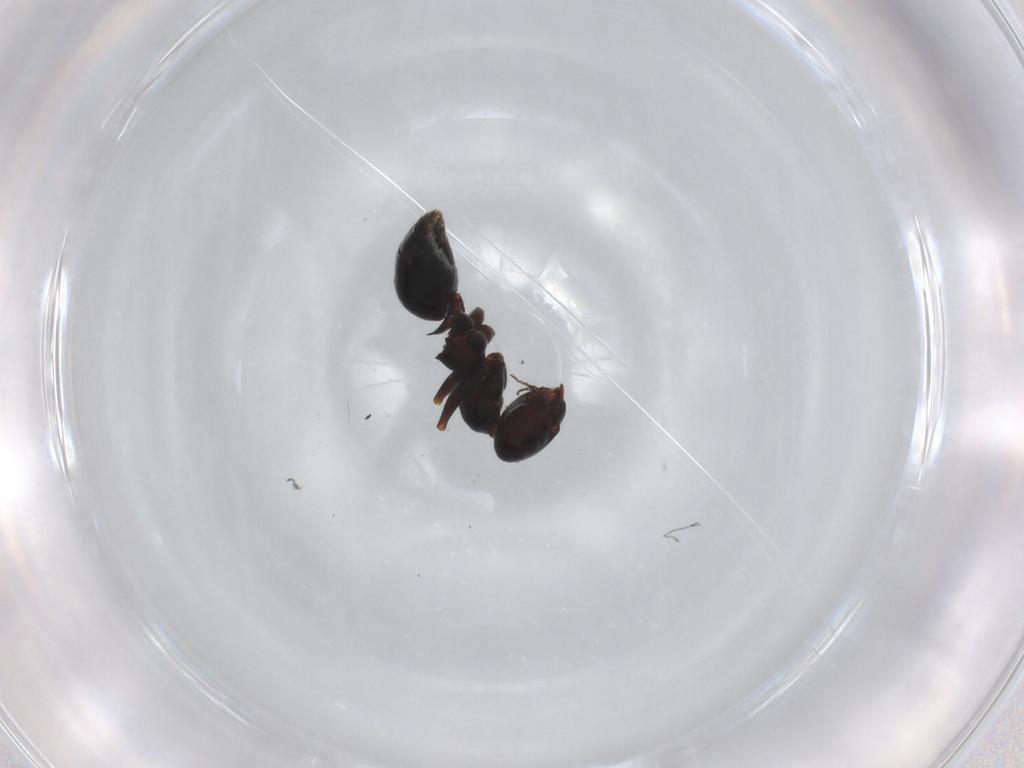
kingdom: Animalia
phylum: Arthropoda
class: Insecta
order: Hymenoptera
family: Formicidae
